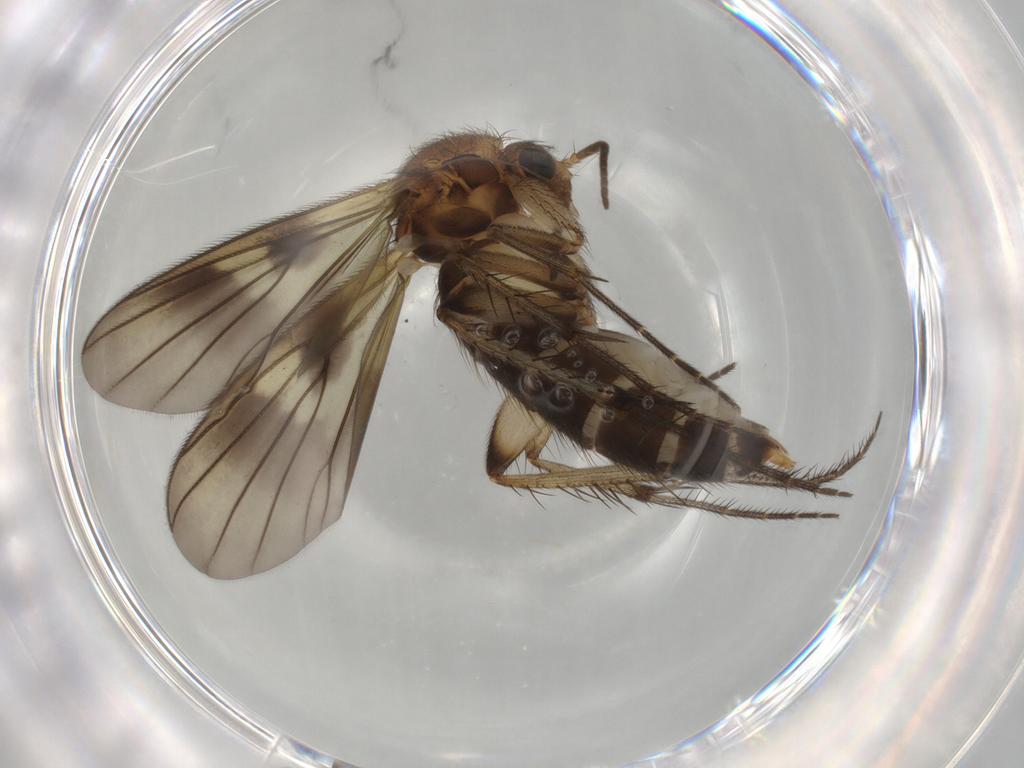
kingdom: Animalia
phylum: Arthropoda
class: Insecta
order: Diptera
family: Mycetophilidae
